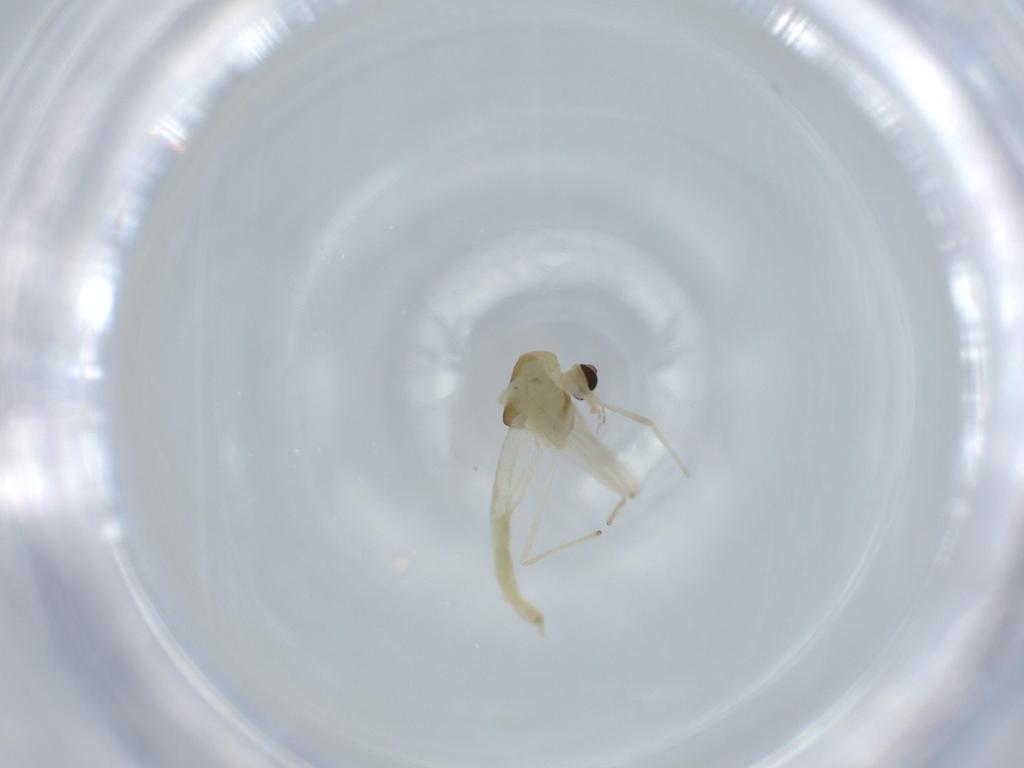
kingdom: Animalia
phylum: Arthropoda
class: Insecta
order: Diptera
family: Chironomidae
